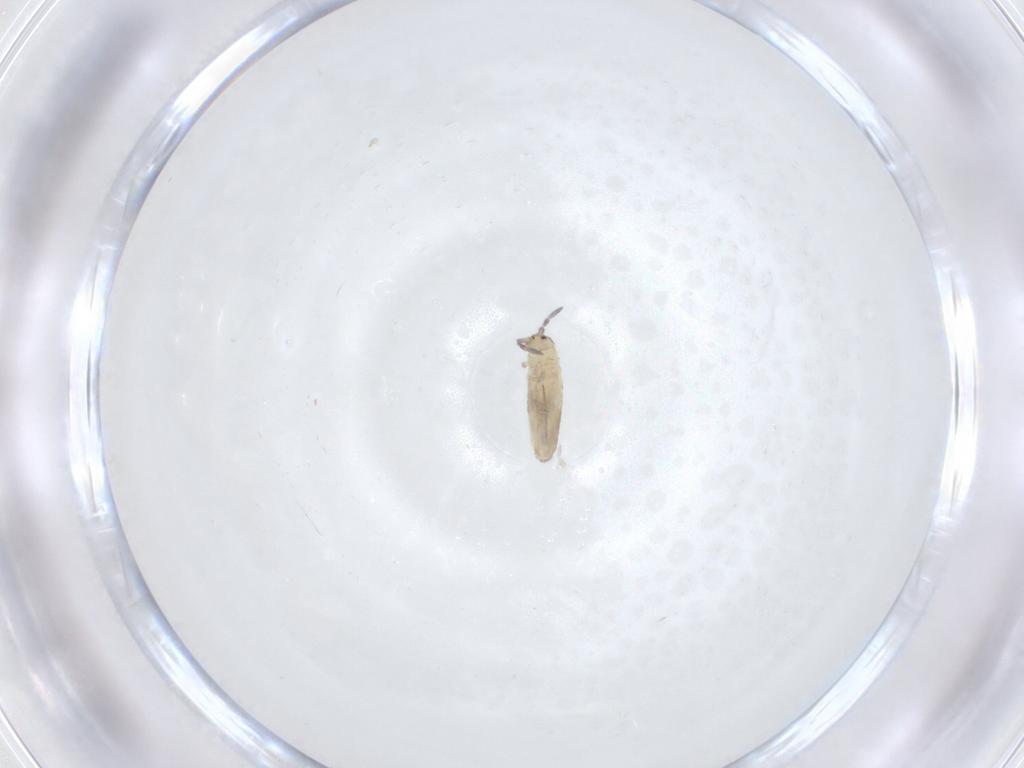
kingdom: Animalia
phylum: Arthropoda
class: Collembola
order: Entomobryomorpha
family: Entomobryidae
